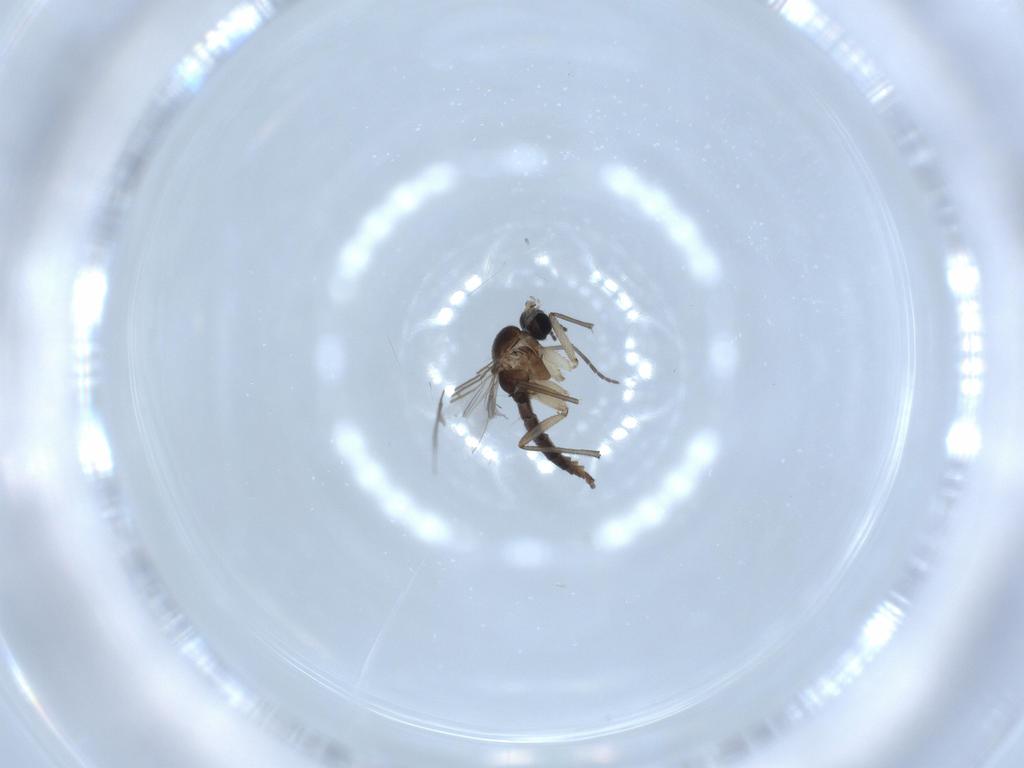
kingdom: Animalia
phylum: Arthropoda
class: Insecta
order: Diptera
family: Sciaridae
